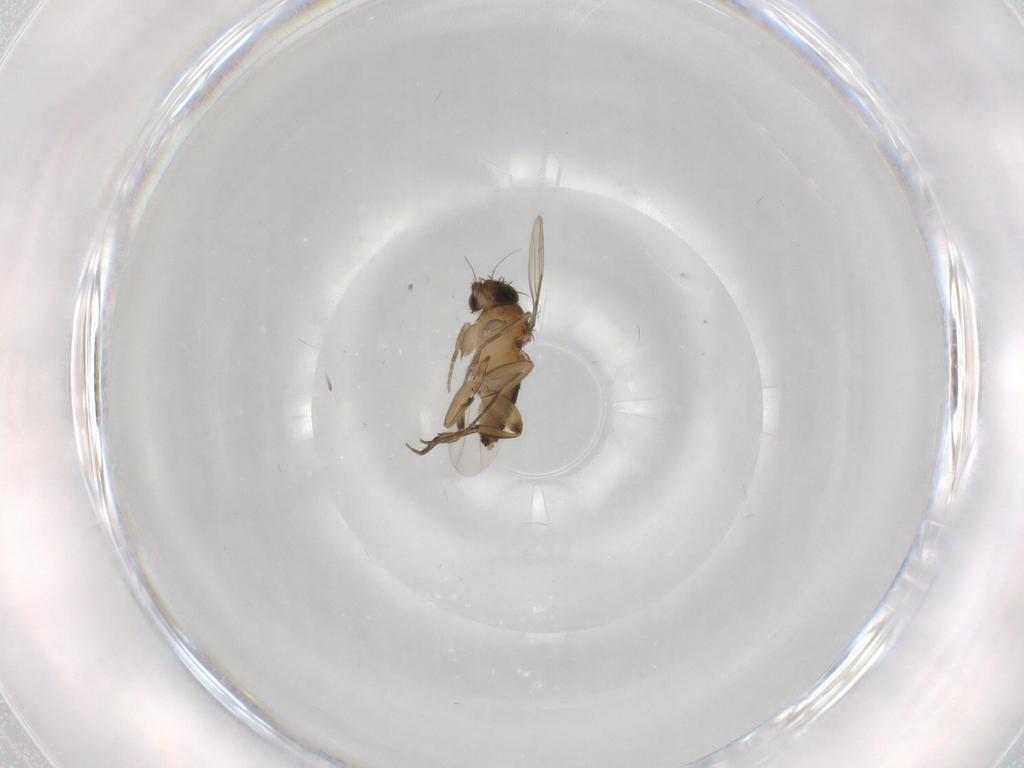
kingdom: Animalia
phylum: Arthropoda
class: Insecta
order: Diptera
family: Phoridae
